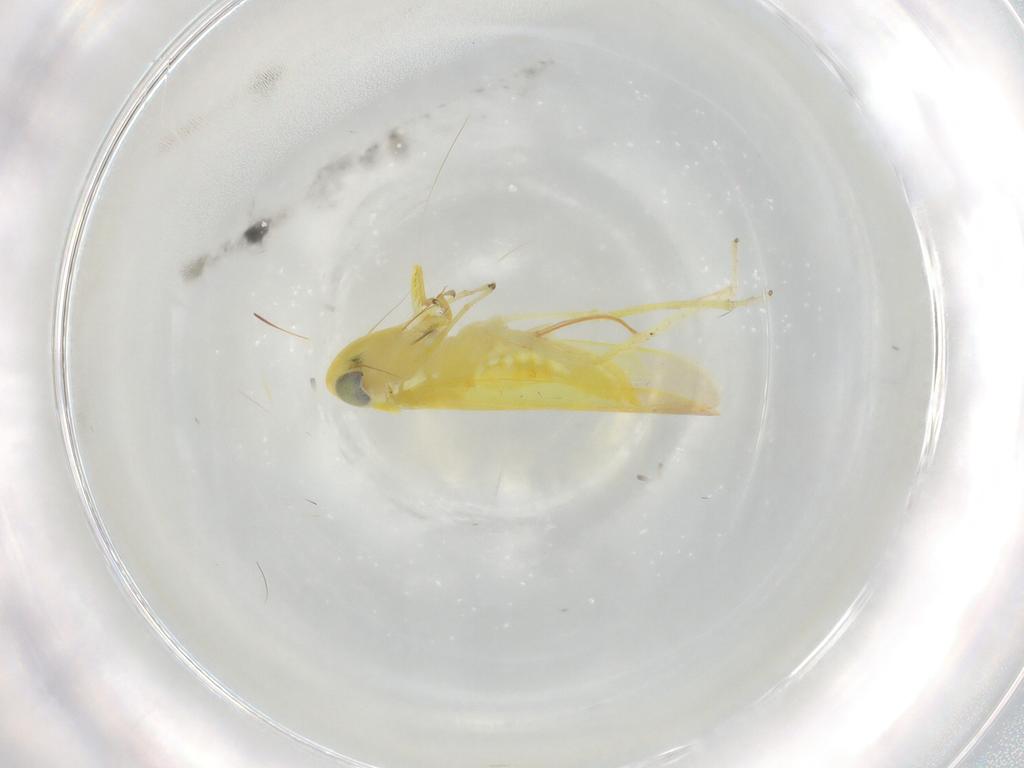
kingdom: Animalia
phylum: Arthropoda
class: Insecta
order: Hemiptera
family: Cicadellidae
